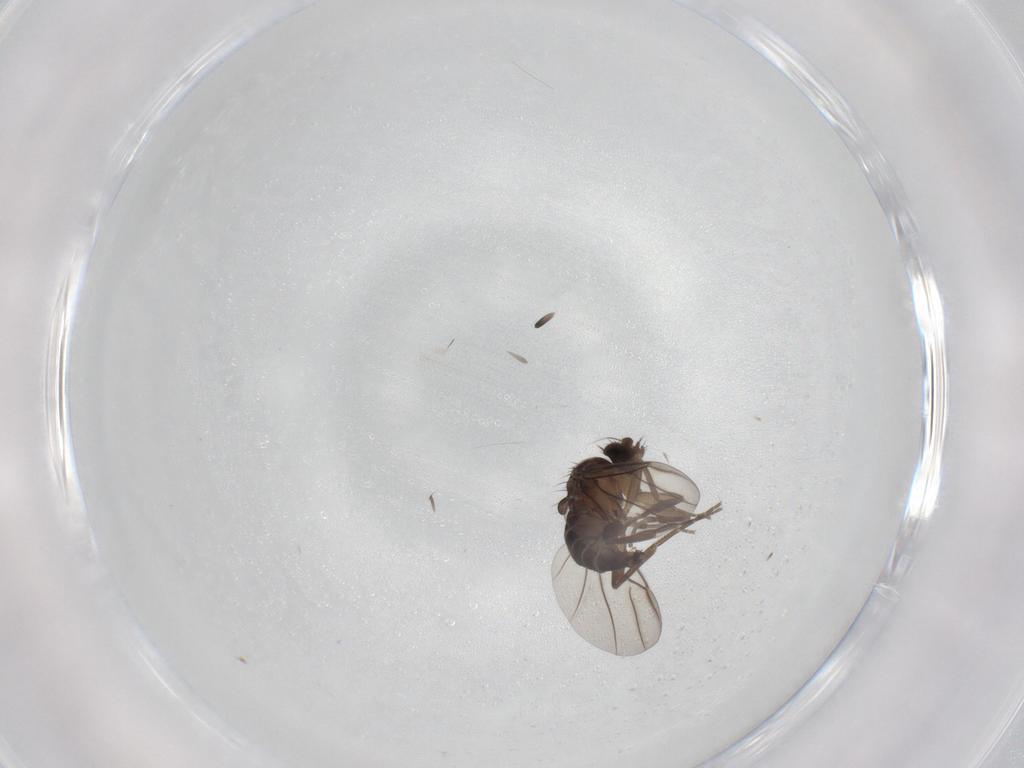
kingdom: Animalia
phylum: Arthropoda
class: Insecta
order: Diptera
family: Phoridae
